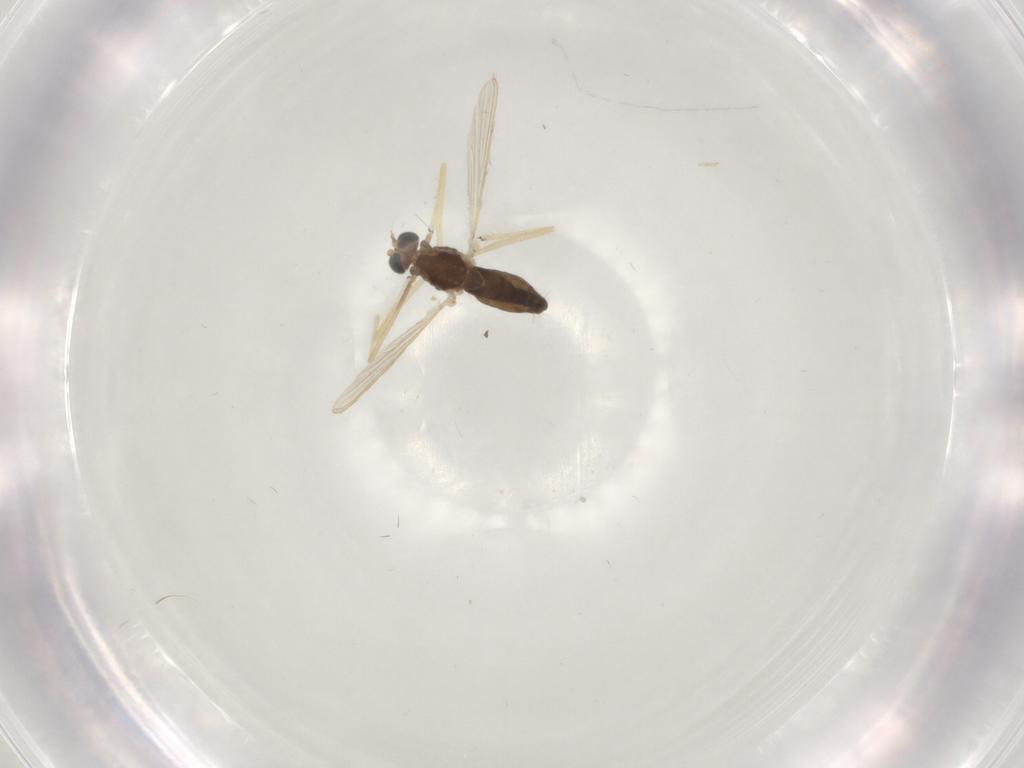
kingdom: Animalia
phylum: Arthropoda
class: Insecta
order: Diptera
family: Chironomidae
